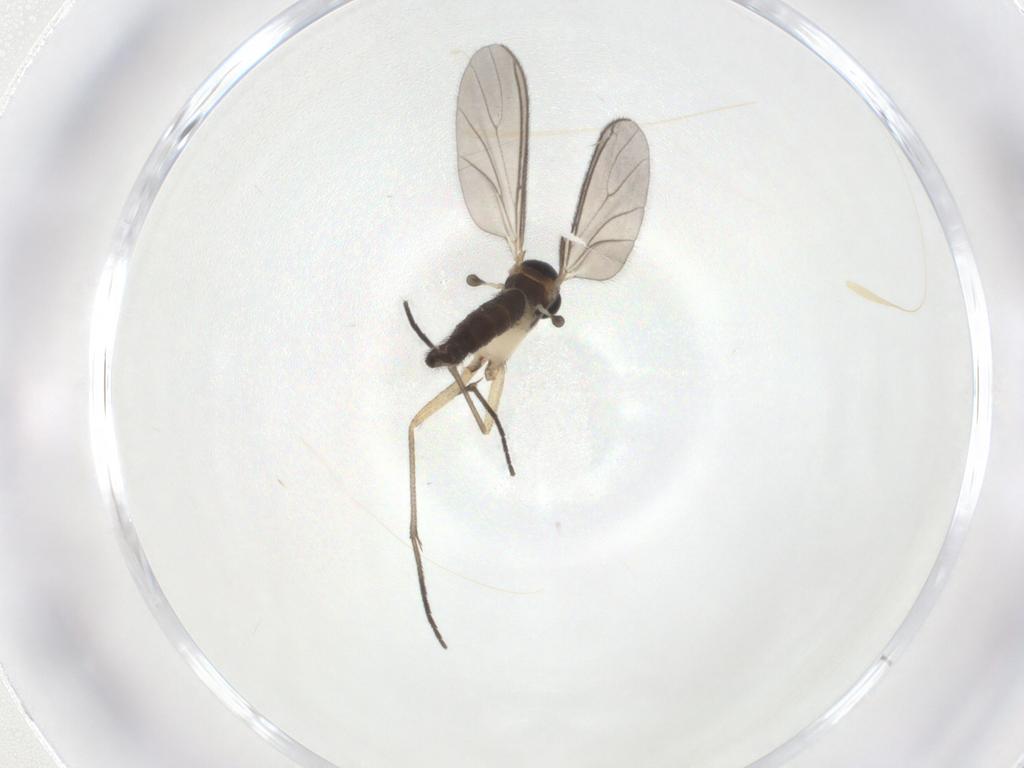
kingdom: Animalia
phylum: Arthropoda
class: Insecta
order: Diptera
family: Sciaridae
